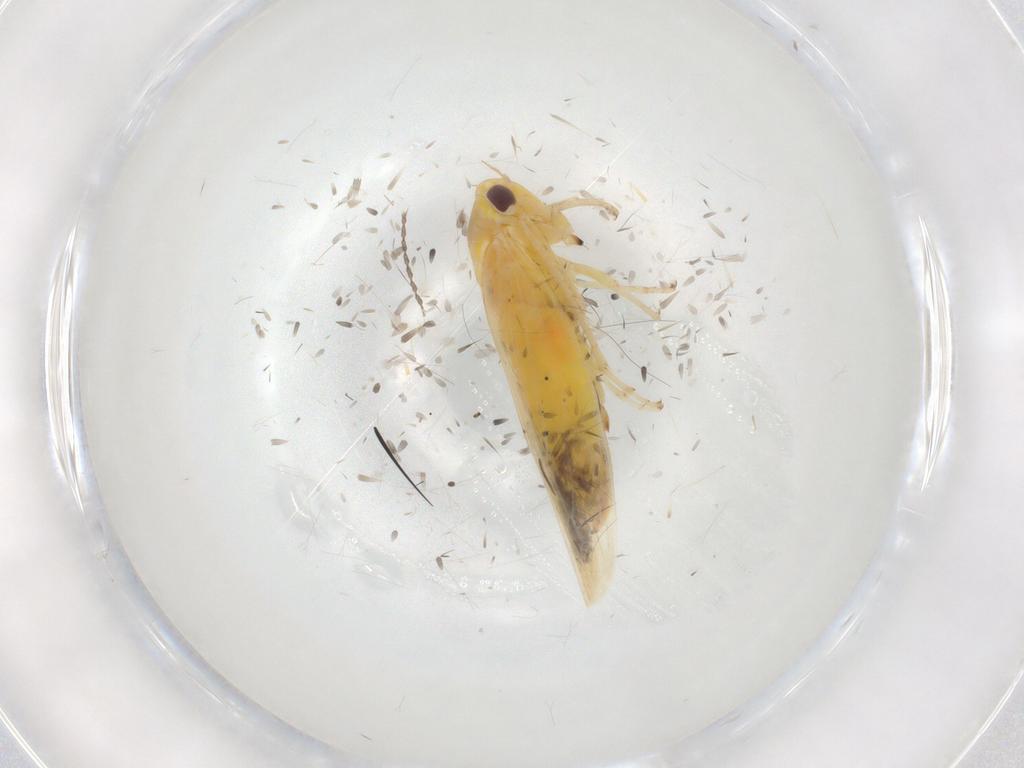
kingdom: Animalia
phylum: Arthropoda
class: Insecta
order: Hemiptera
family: Cicadellidae
